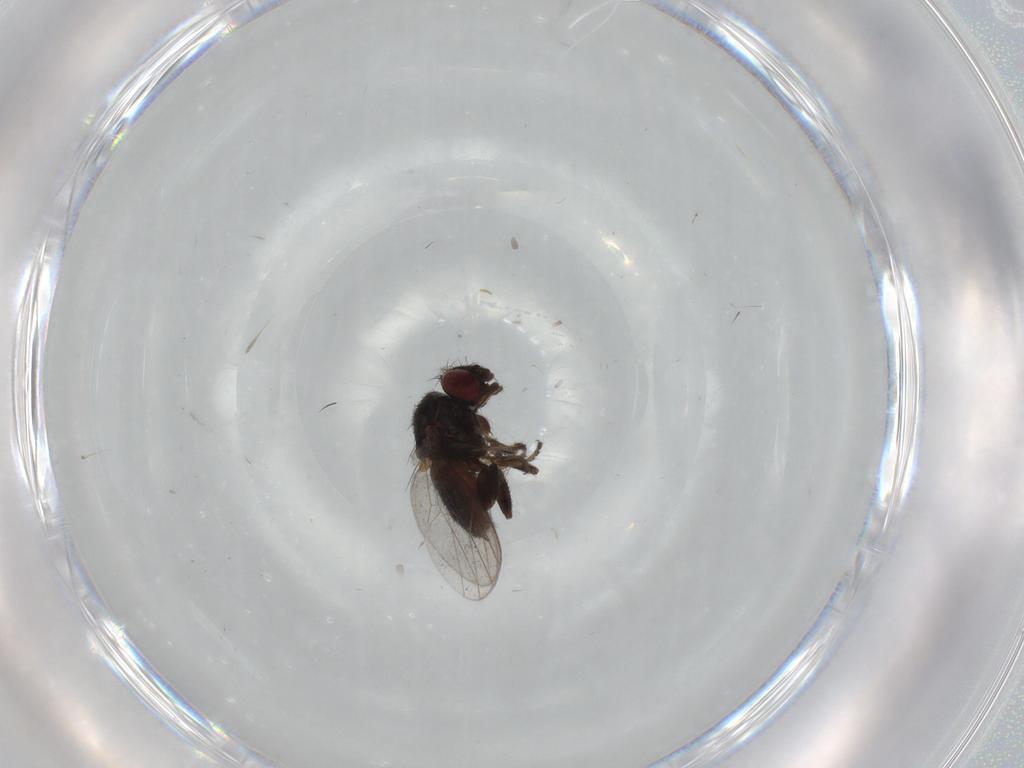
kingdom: Animalia
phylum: Arthropoda
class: Insecta
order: Diptera
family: Milichiidae
